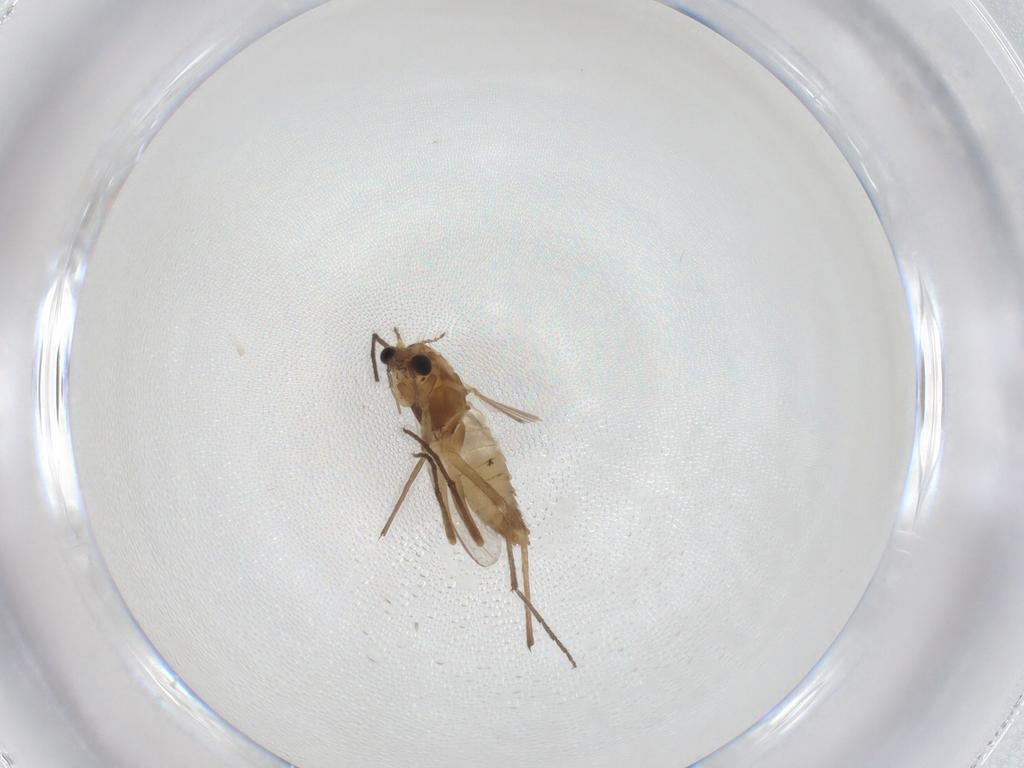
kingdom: Animalia
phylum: Arthropoda
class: Insecta
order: Diptera
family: Chironomidae
